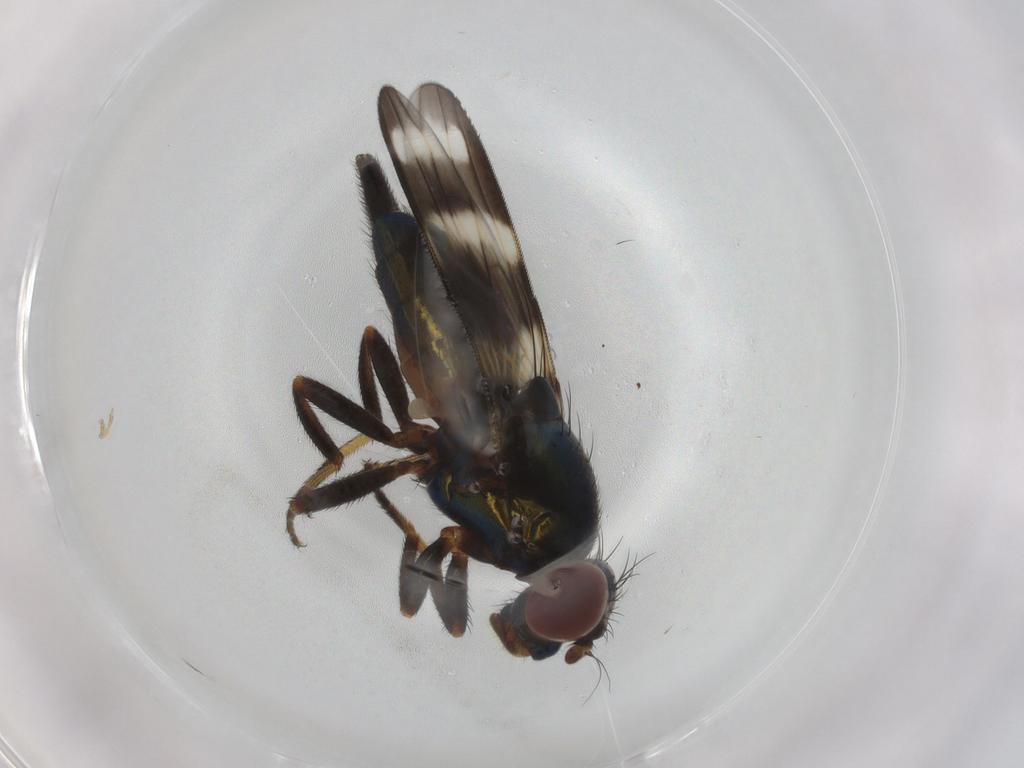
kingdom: Animalia
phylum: Arthropoda
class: Insecta
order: Diptera
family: Ulidiidae
